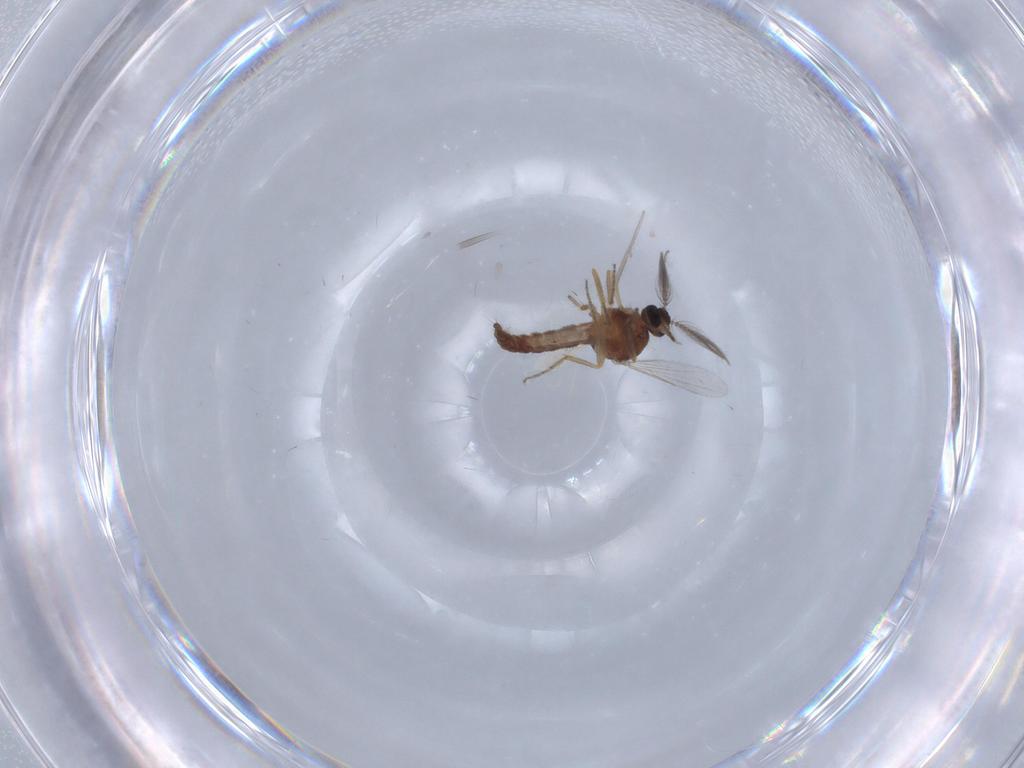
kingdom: Animalia
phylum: Arthropoda
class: Insecta
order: Diptera
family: Ceratopogonidae
